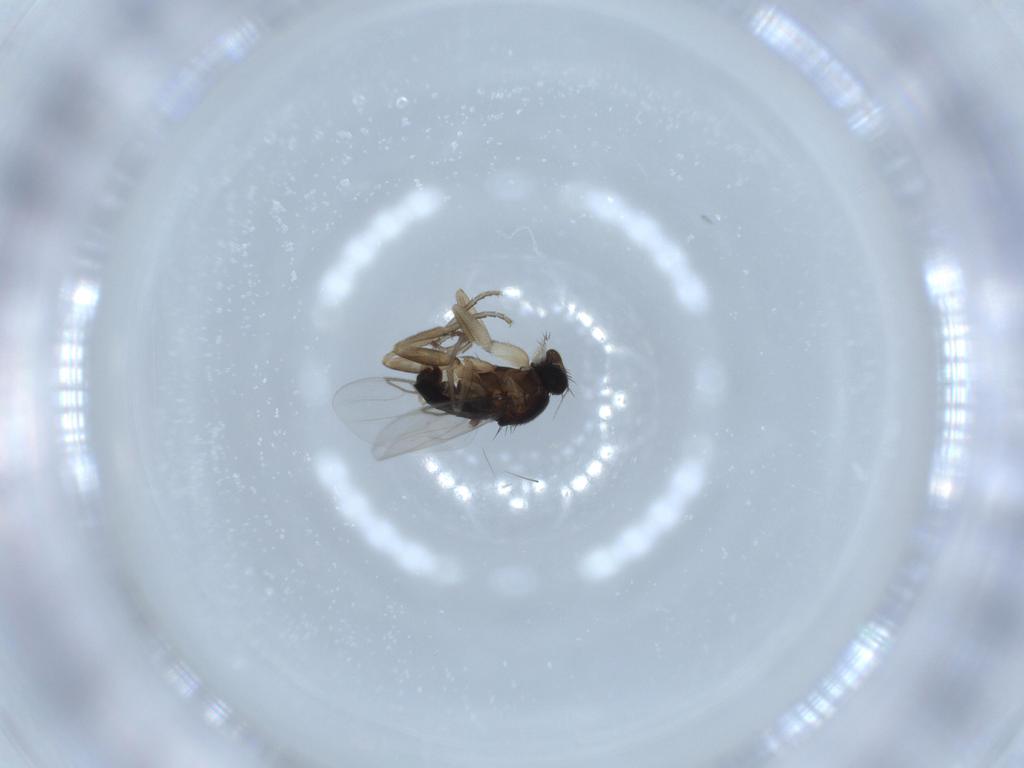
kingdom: Animalia
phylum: Arthropoda
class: Insecta
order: Diptera
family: Phoridae
